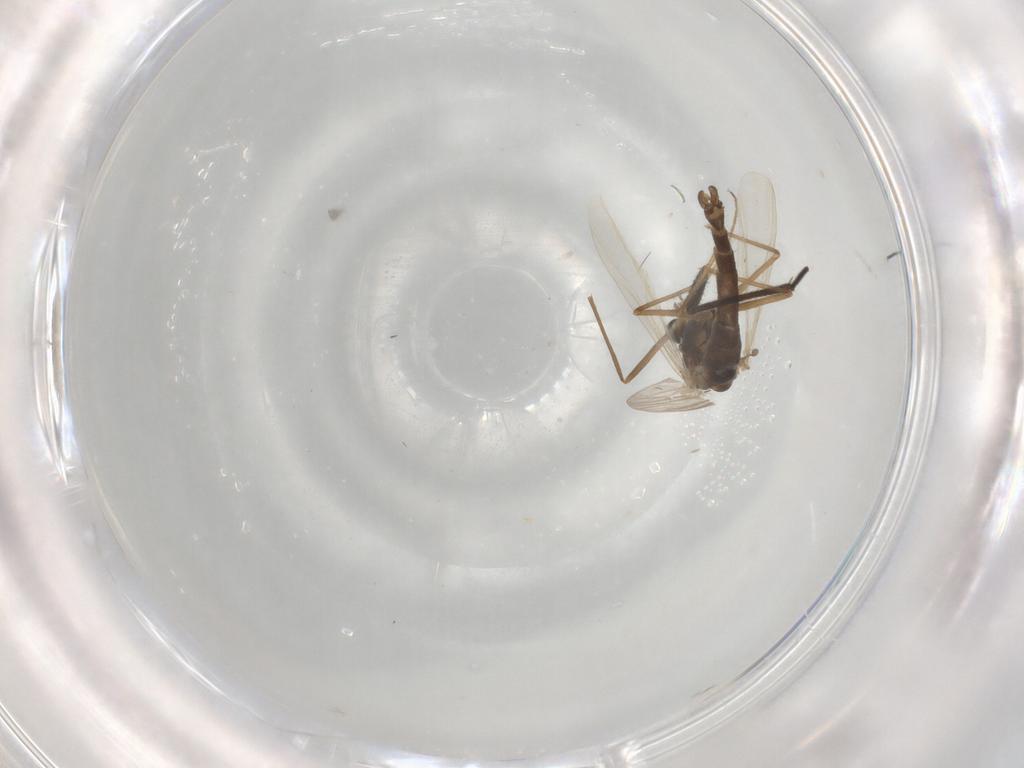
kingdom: Animalia
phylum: Arthropoda
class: Insecta
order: Diptera
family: Chironomidae
